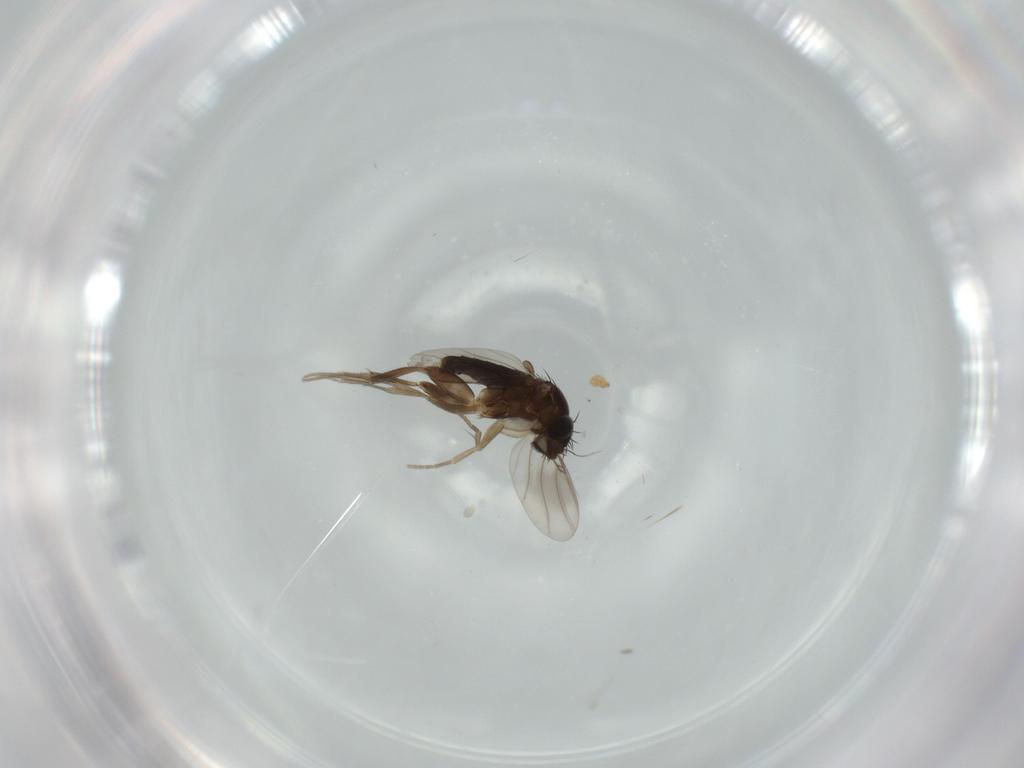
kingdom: Animalia
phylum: Arthropoda
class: Insecta
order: Diptera
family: Phoridae
